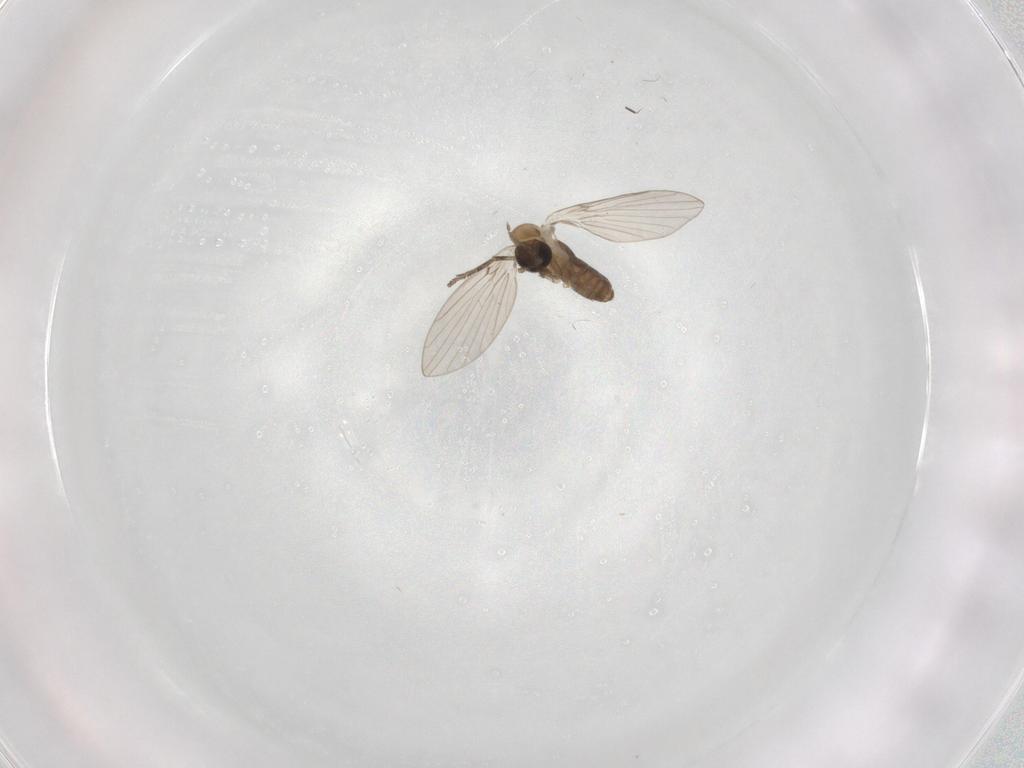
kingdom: Animalia
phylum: Arthropoda
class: Insecta
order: Diptera
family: Psychodidae
